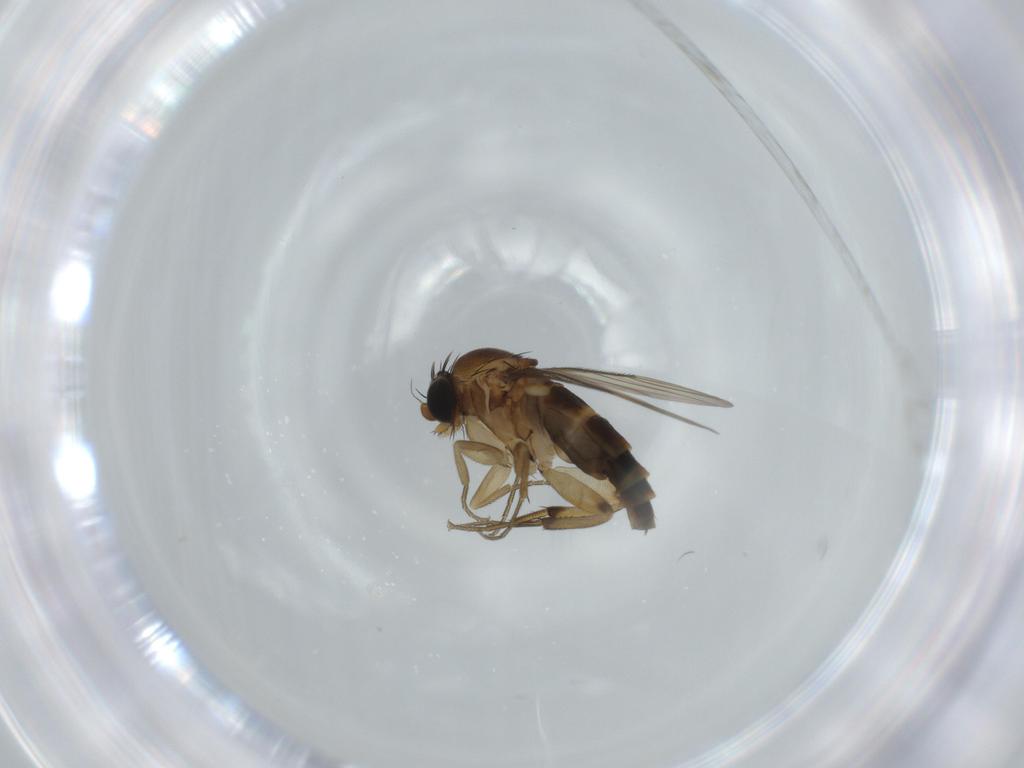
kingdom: Animalia
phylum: Arthropoda
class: Insecta
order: Diptera
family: Phoridae
